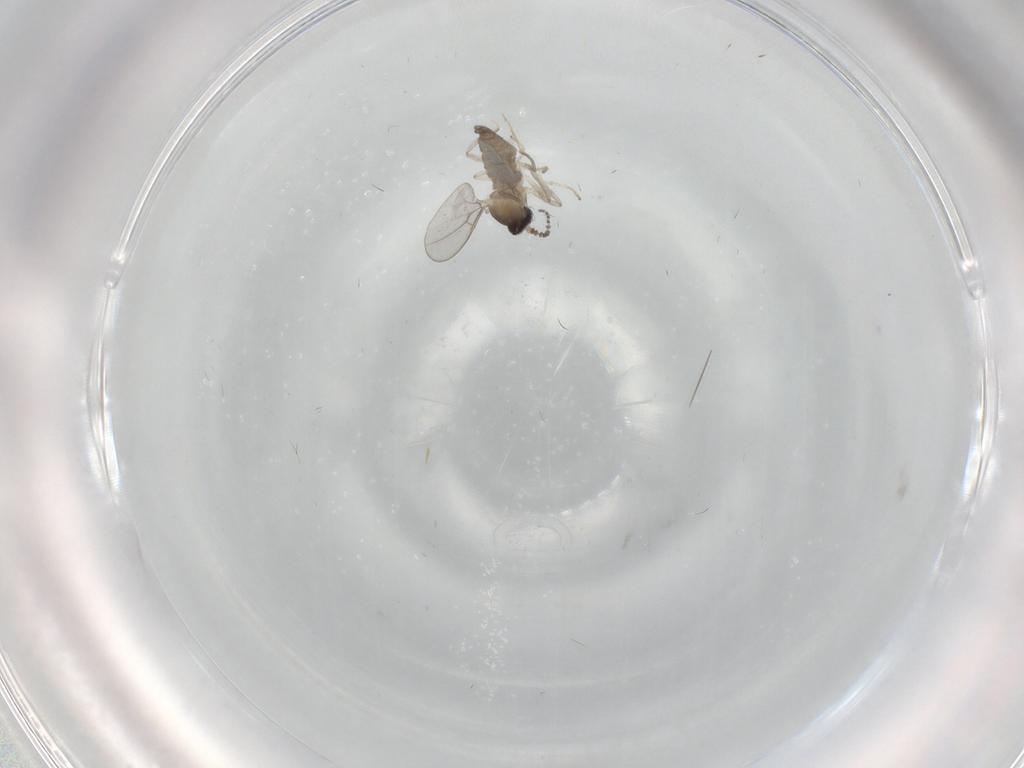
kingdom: Animalia
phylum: Arthropoda
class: Insecta
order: Diptera
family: Cecidomyiidae
